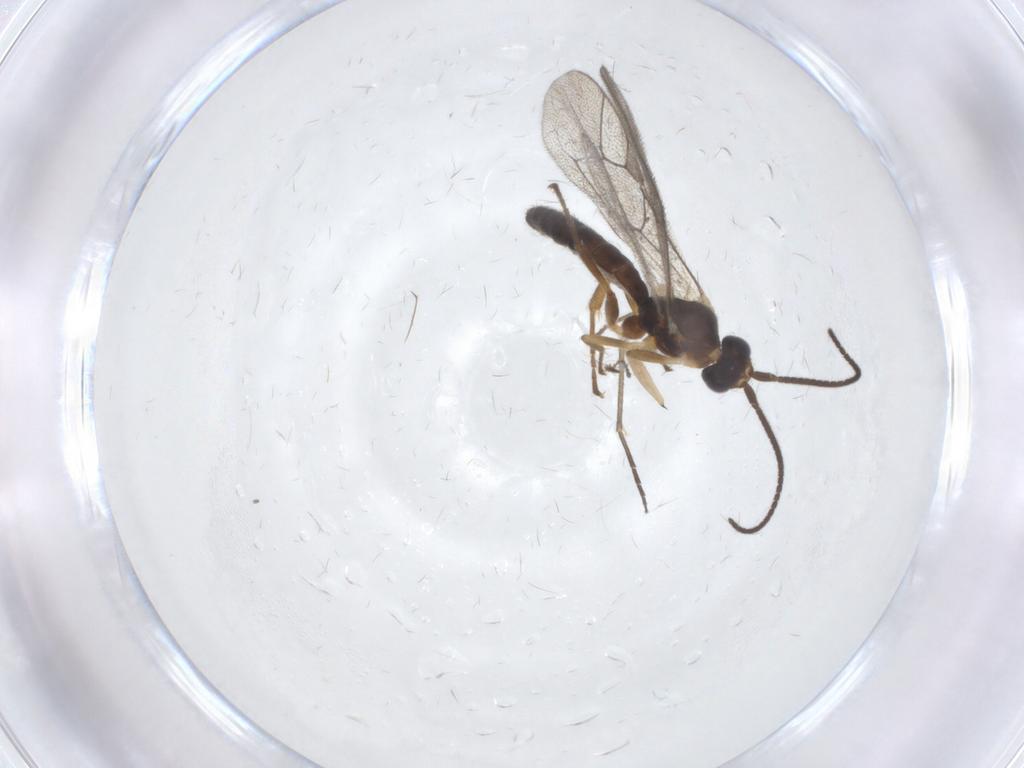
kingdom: Animalia
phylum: Arthropoda
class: Insecta
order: Hymenoptera
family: Ichneumonidae
